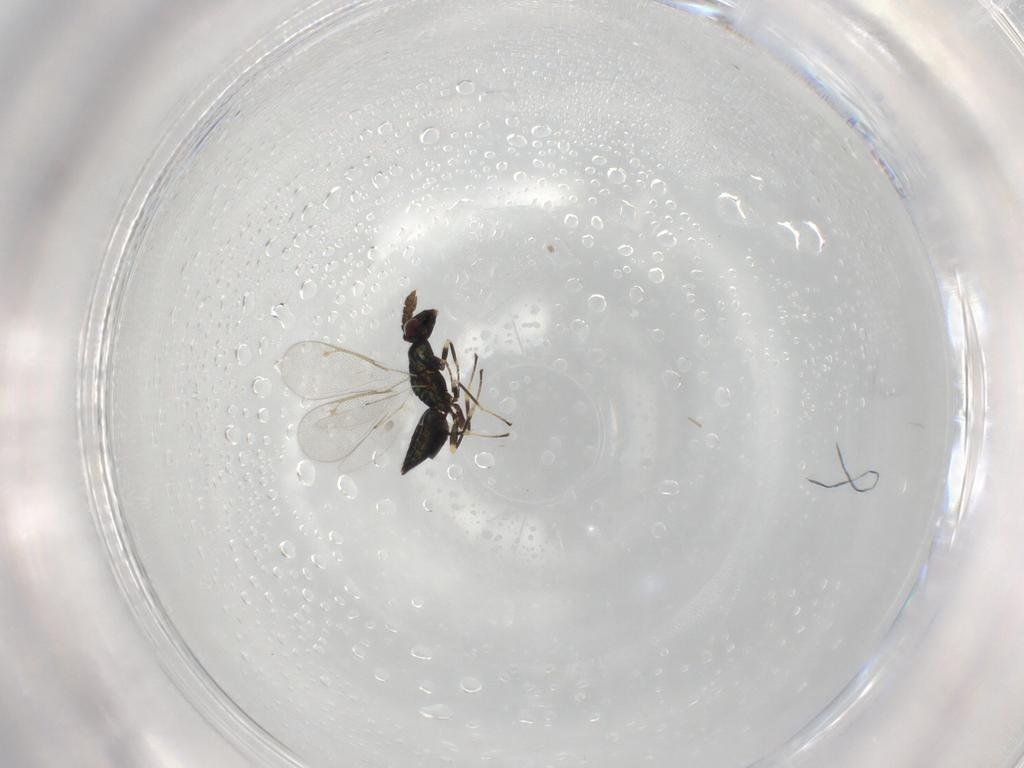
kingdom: Animalia
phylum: Arthropoda
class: Insecta
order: Hymenoptera
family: Eulophidae
